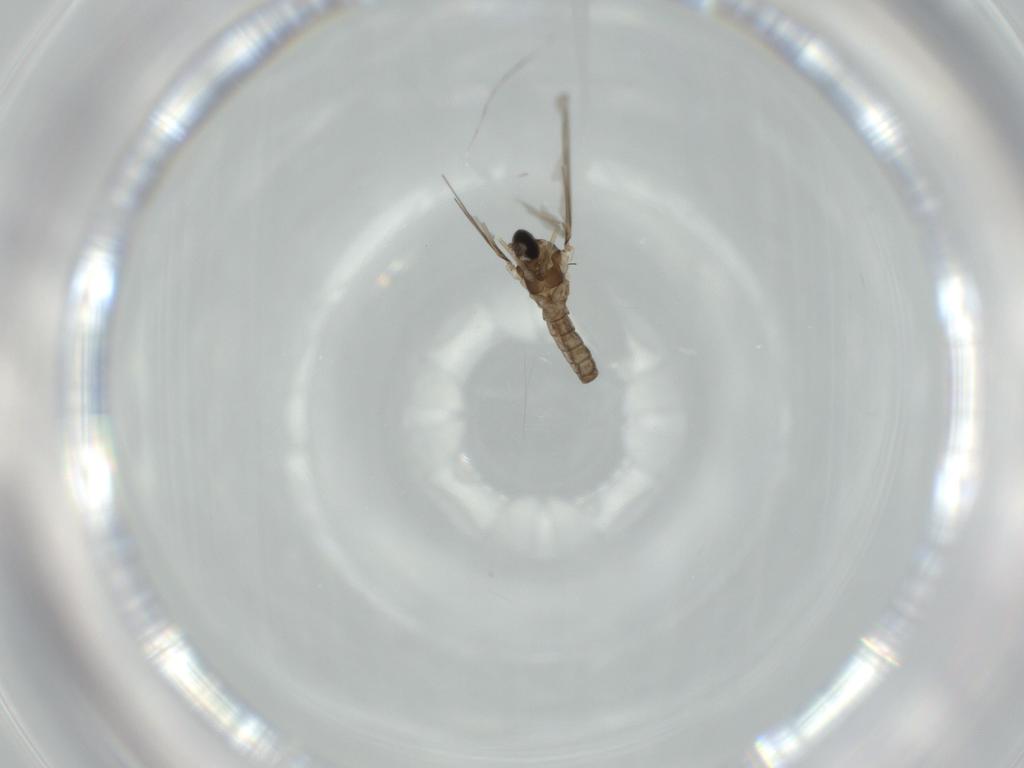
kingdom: Animalia
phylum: Arthropoda
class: Insecta
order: Diptera
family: Cecidomyiidae
